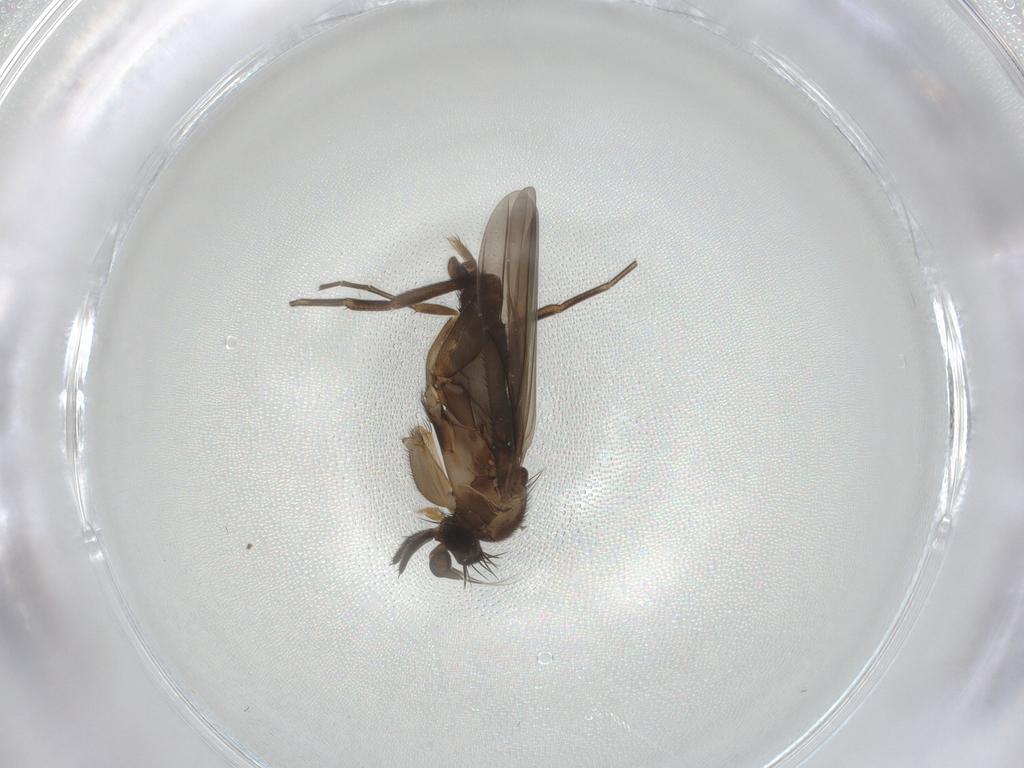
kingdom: Animalia
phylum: Arthropoda
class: Insecta
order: Diptera
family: Phoridae
